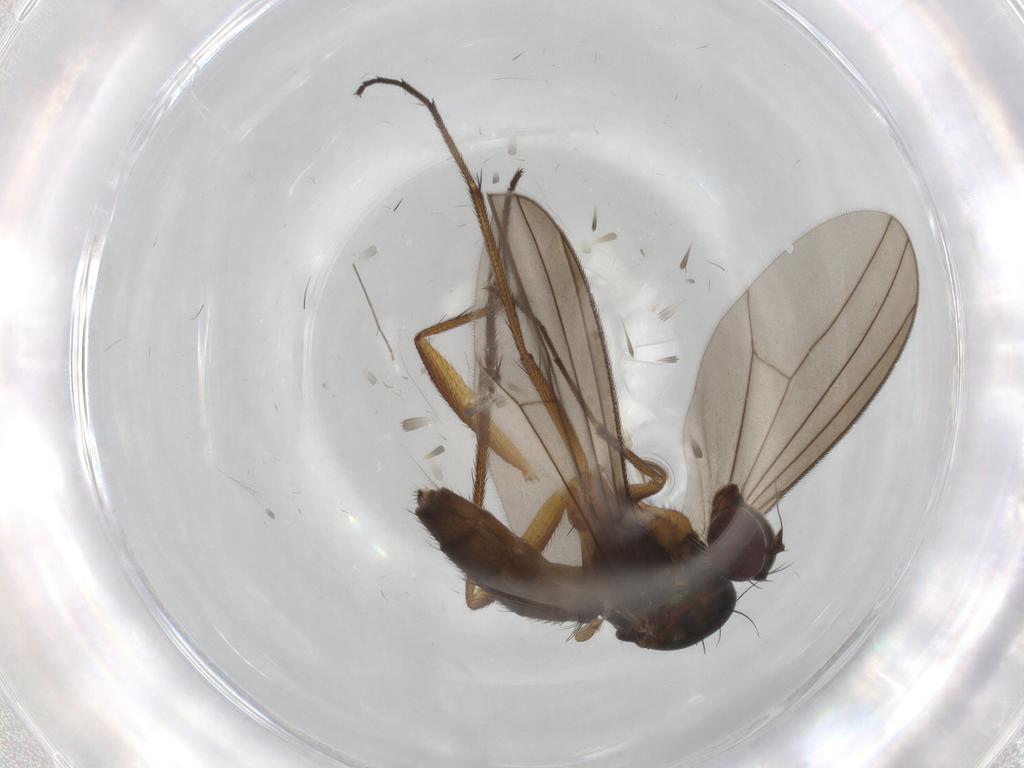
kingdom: Animalia
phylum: Arthropoda
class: Insecta
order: Diptera
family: Dolichopodidae
